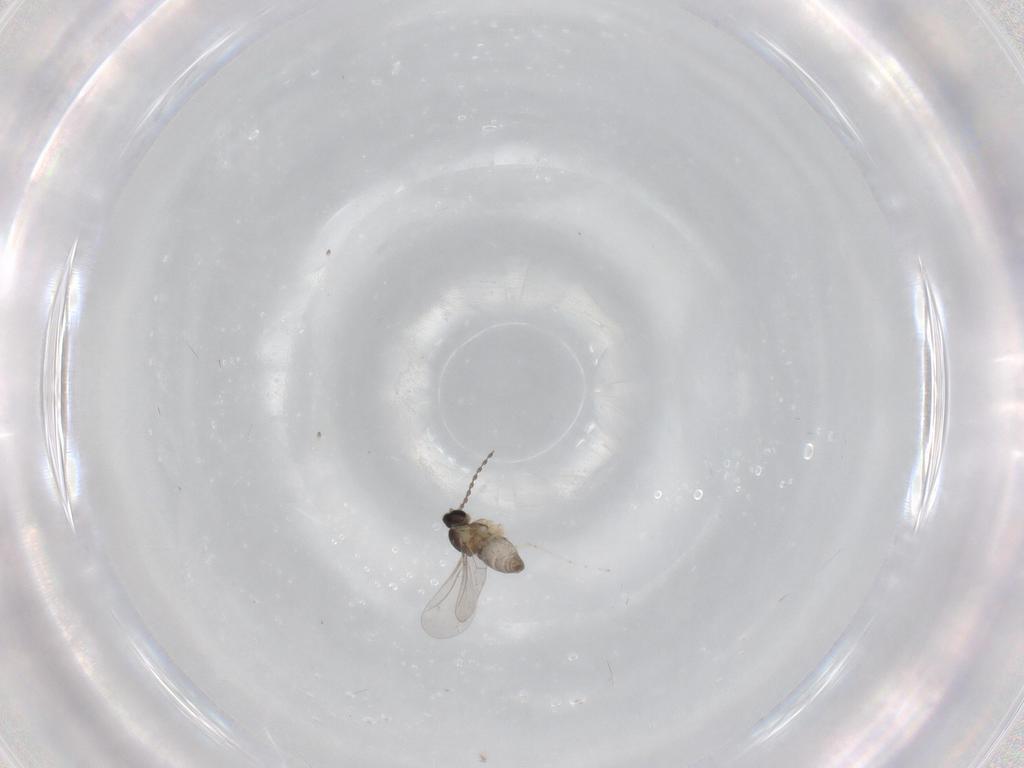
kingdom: Animalia
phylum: Arthropoda
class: Insecta
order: Diptera
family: Cecidomyiidae
